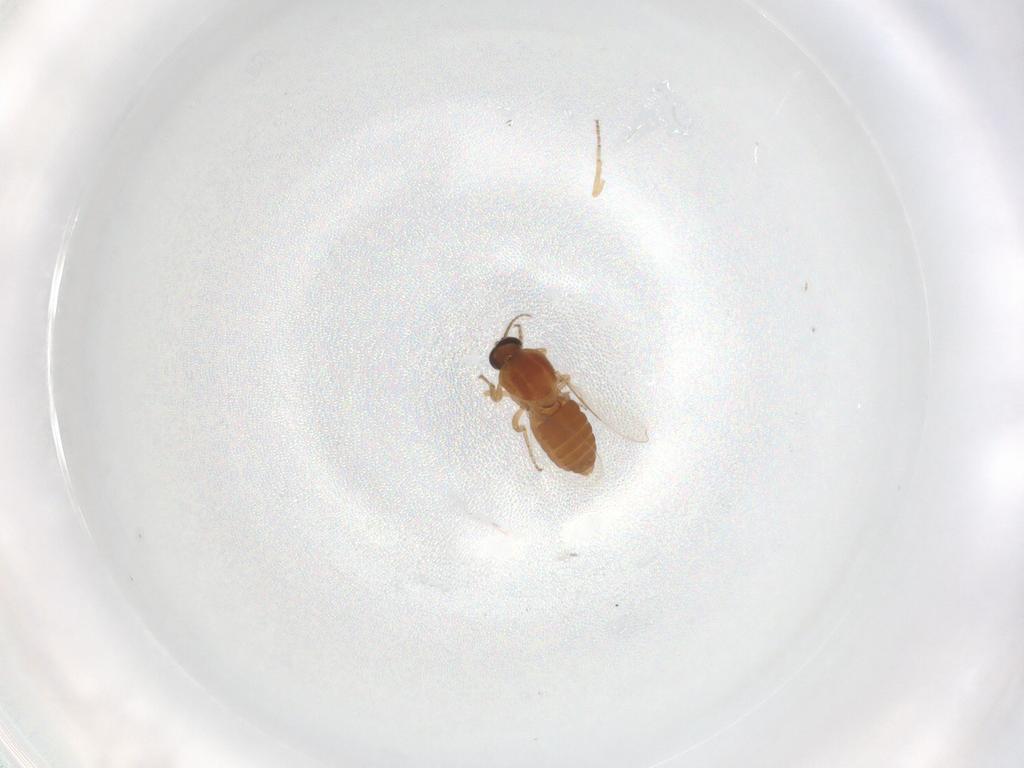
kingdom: Animalia
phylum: Arthropoda
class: Insecta
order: Diptera
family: Ceratopogonidae
